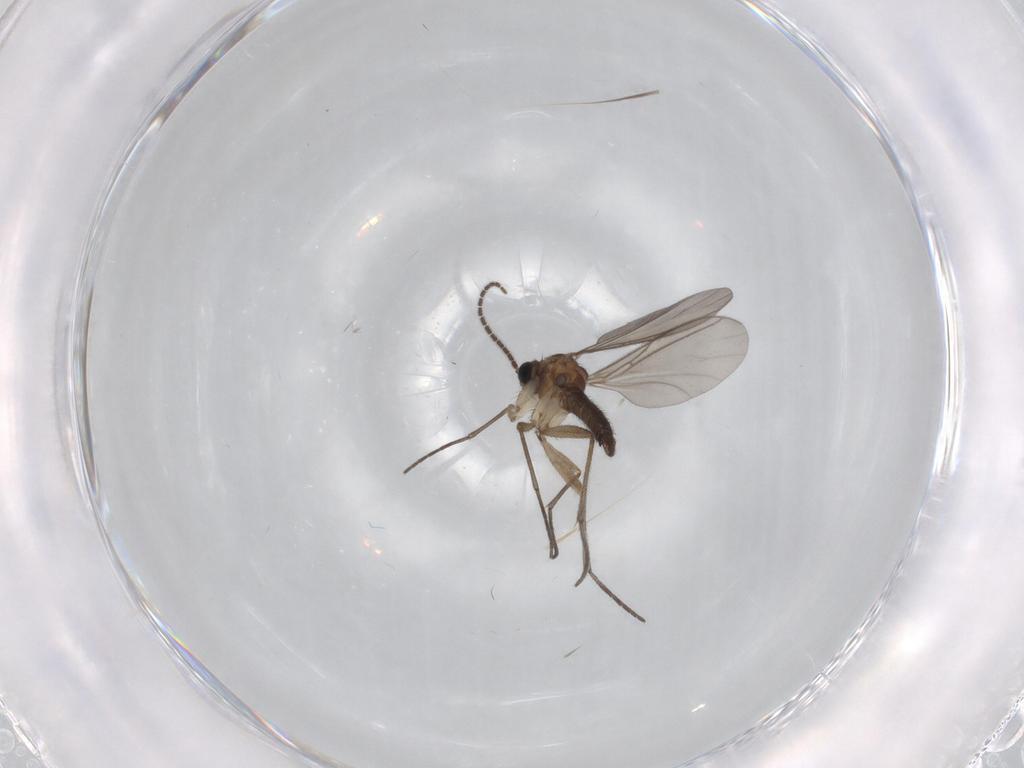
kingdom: Animalia
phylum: Arthropoda
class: Insecta
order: Diptera
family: Sciaridae
